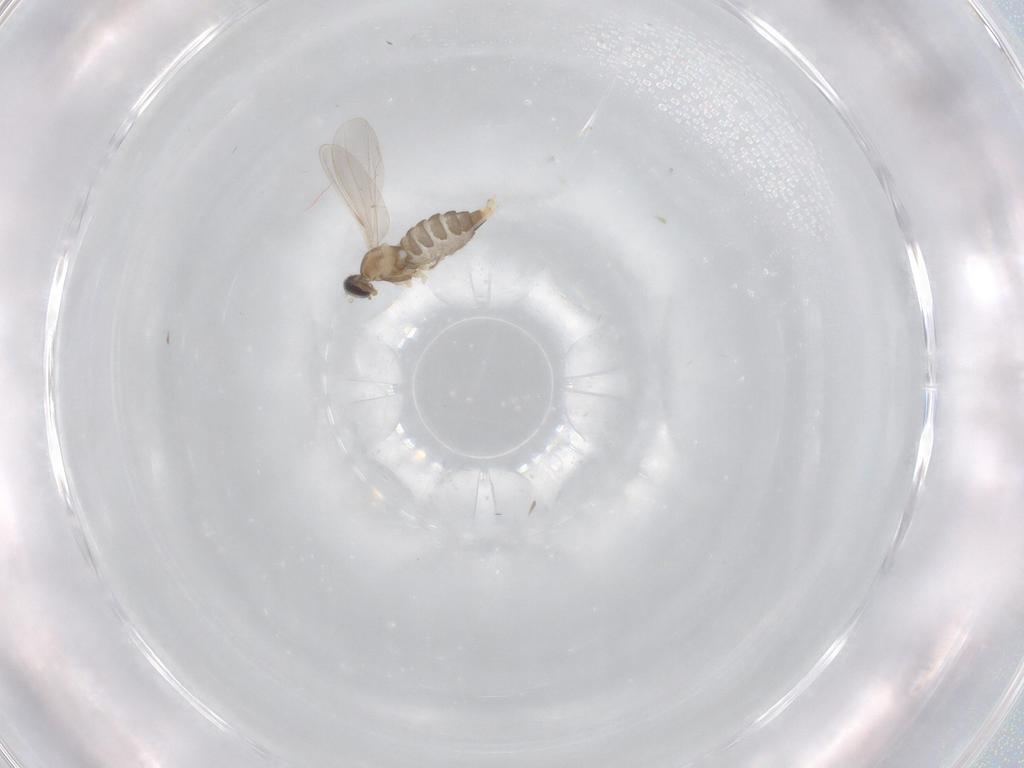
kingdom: Animalia
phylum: Arthropoda
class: Insecta
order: Diptera
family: Cecidomyiidae
